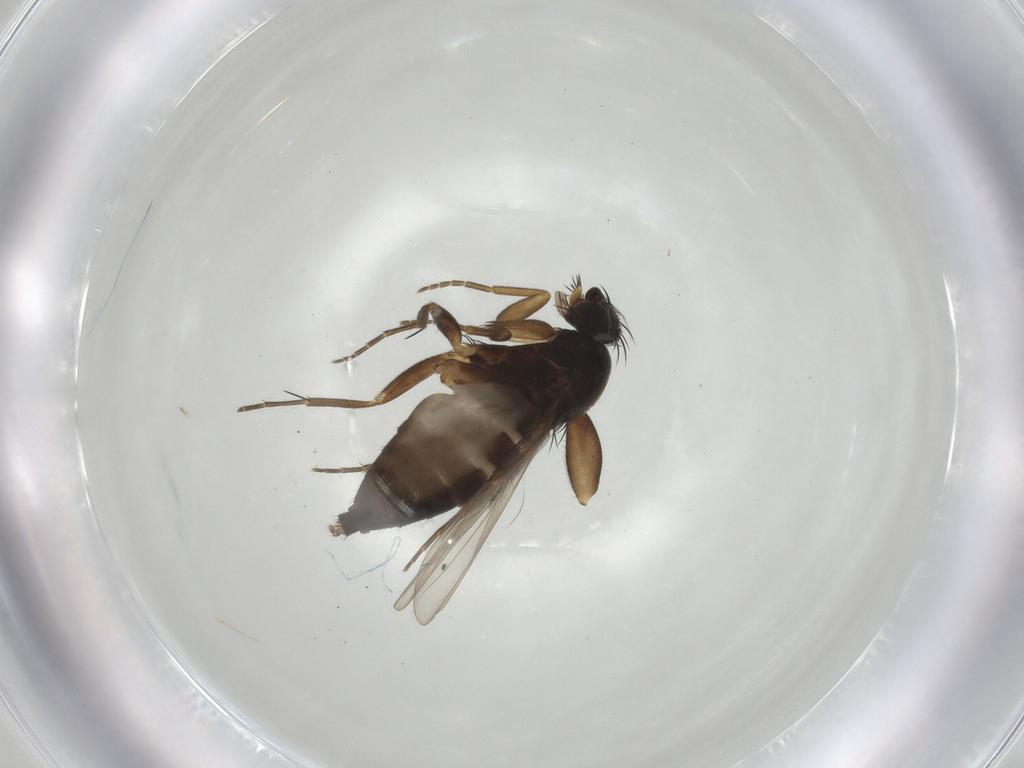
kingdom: Animalia
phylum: Arthropoda
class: Insecta
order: Diptera
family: Phoridae
